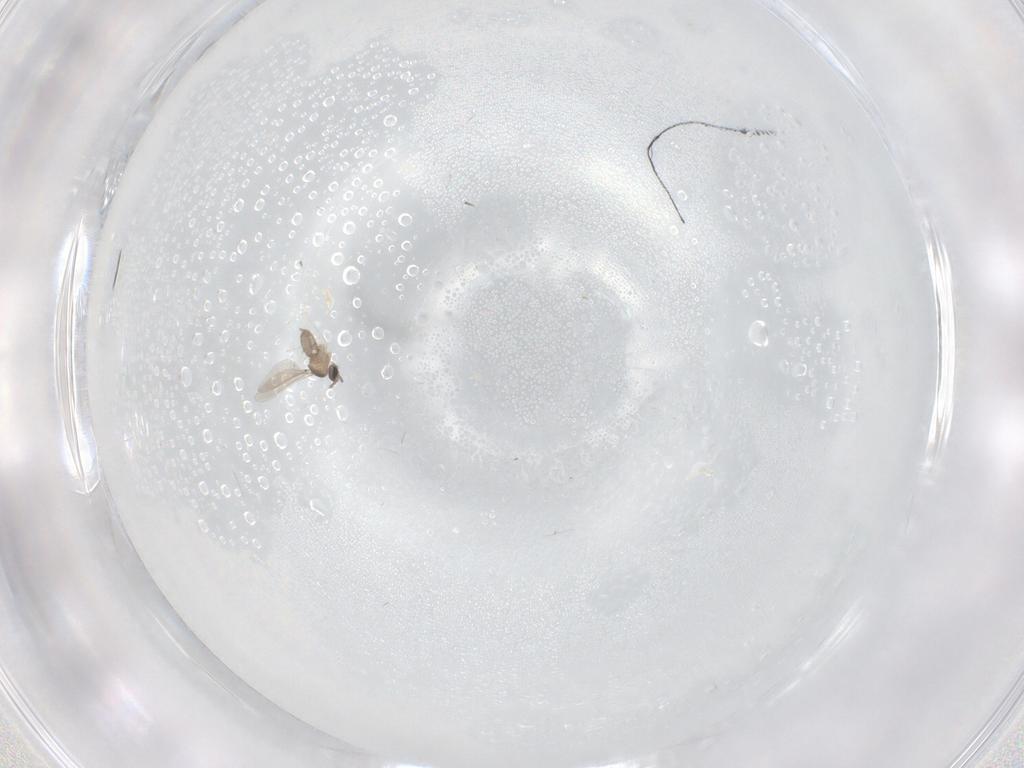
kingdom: Animalia
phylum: Arthropoda
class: Insecta
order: Diptera
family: Cecidomyiidae
